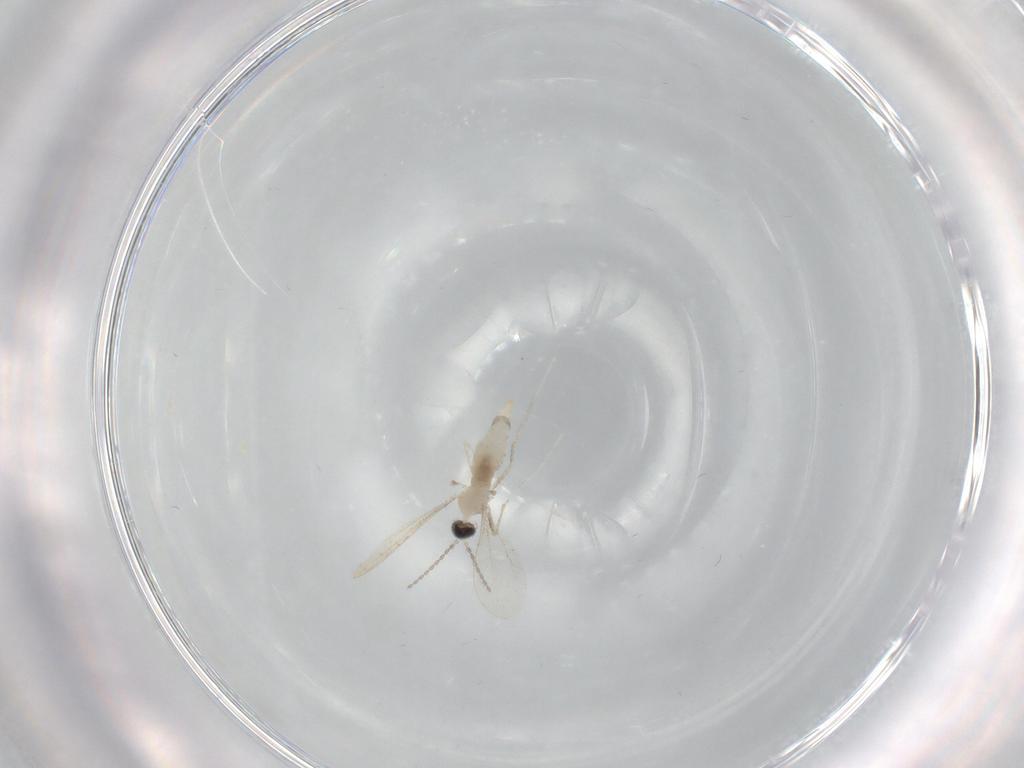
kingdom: Animalia
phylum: Arthropoda
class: Insecta
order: Diptera
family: Cecidomyiidae
